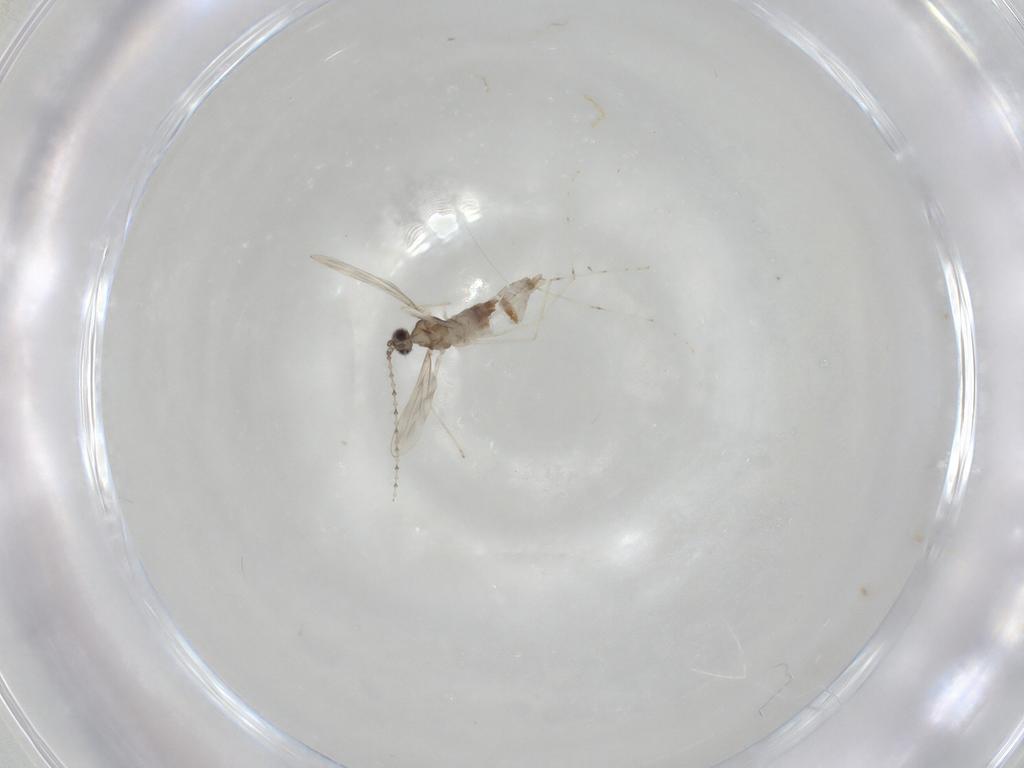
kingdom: Animalia
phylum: Arthropoda
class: Insecta
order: Diptera
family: Cecidomyiidae
